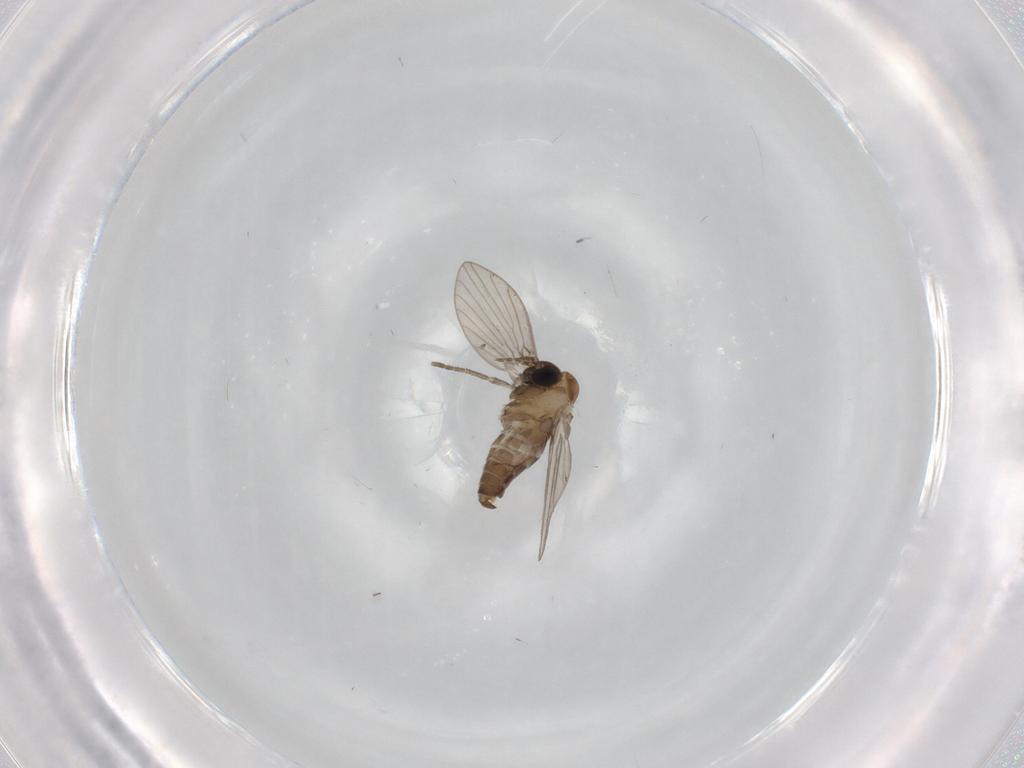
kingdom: Animalia
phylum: Arthropoda
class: Insecta
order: Diptera
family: Psychodidae
